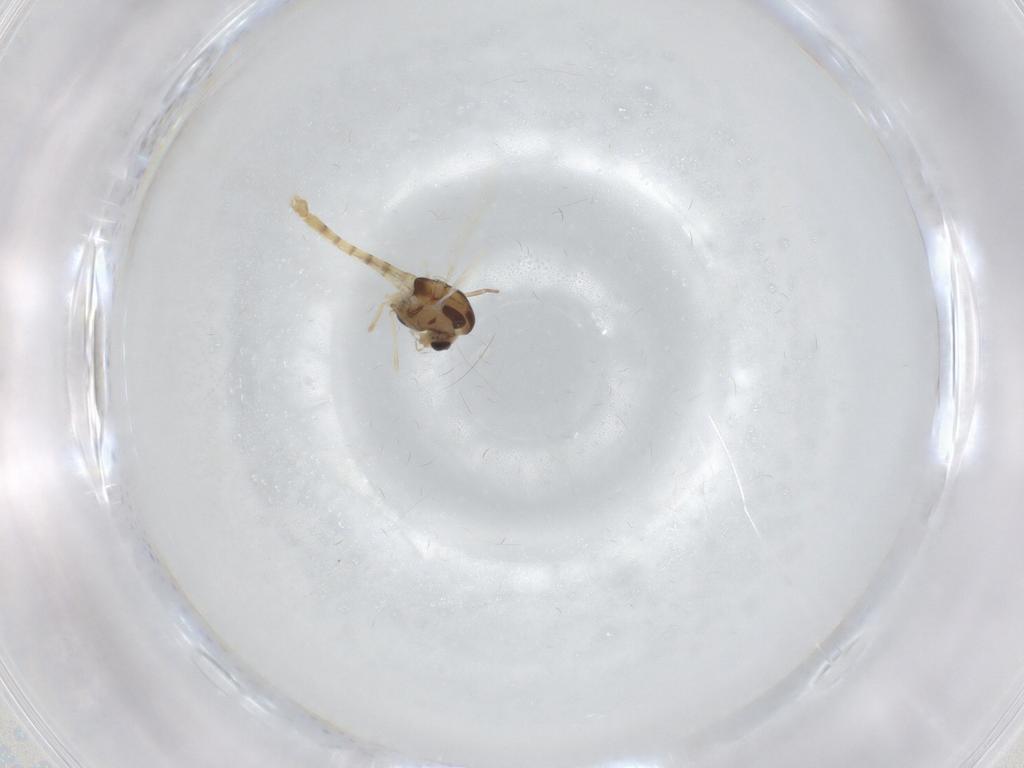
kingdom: Animalia
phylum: Arthropoda
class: Insecta
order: Diptera
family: Chironomidae
